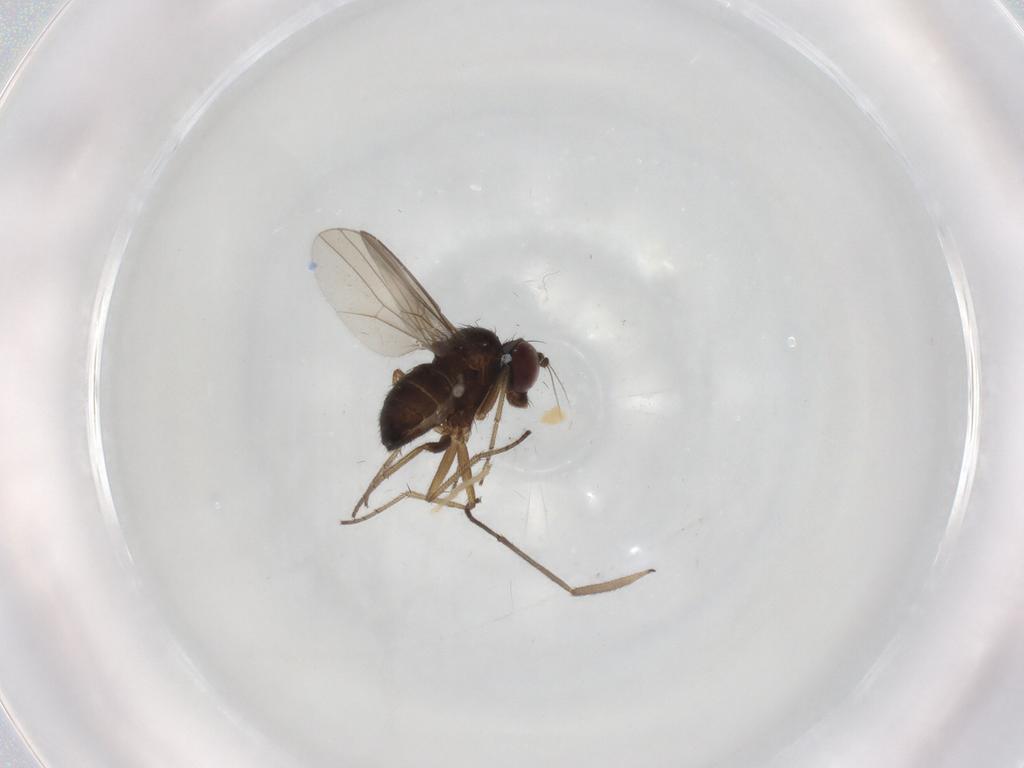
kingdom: Animalia
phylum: Arthropoda
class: Insecta
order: Diptera
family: Dolichopodidae
